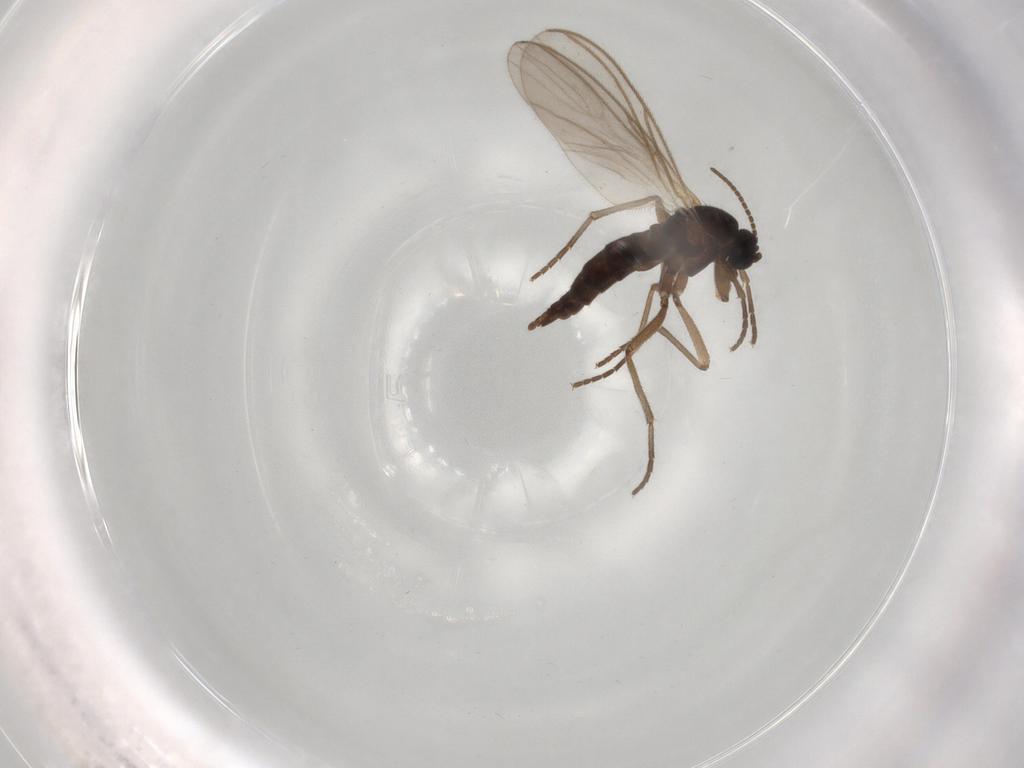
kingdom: Animalia
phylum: Arthropoda
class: Insecta
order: Diptera
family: Sciaridae
